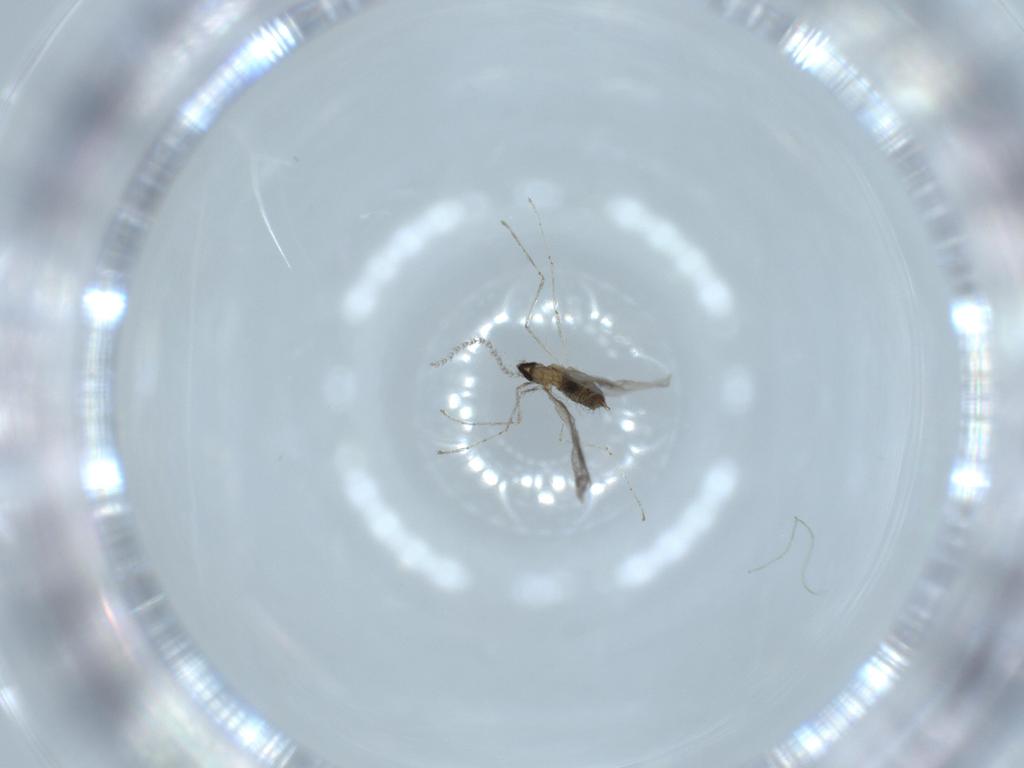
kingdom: Animalia
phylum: Arthropoda
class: Insecta
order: Diptera
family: Cecidomyiidae
